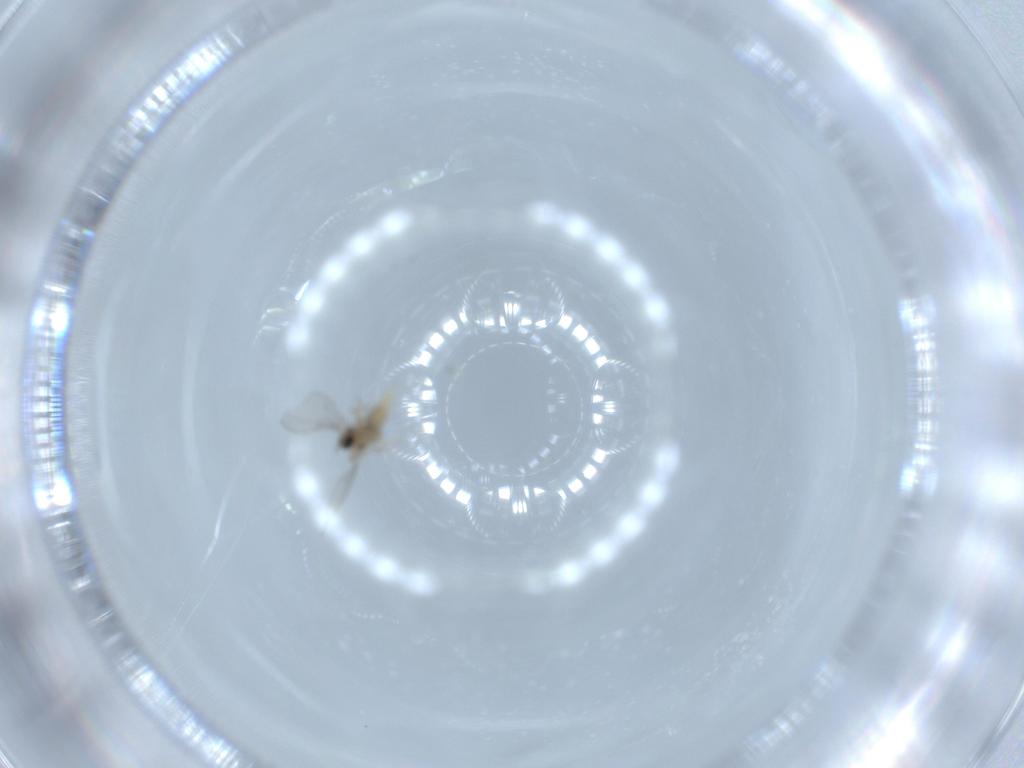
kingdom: Animalia
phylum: Arthropoda
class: Insecta
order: Diptera
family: Cecidomyiidae
